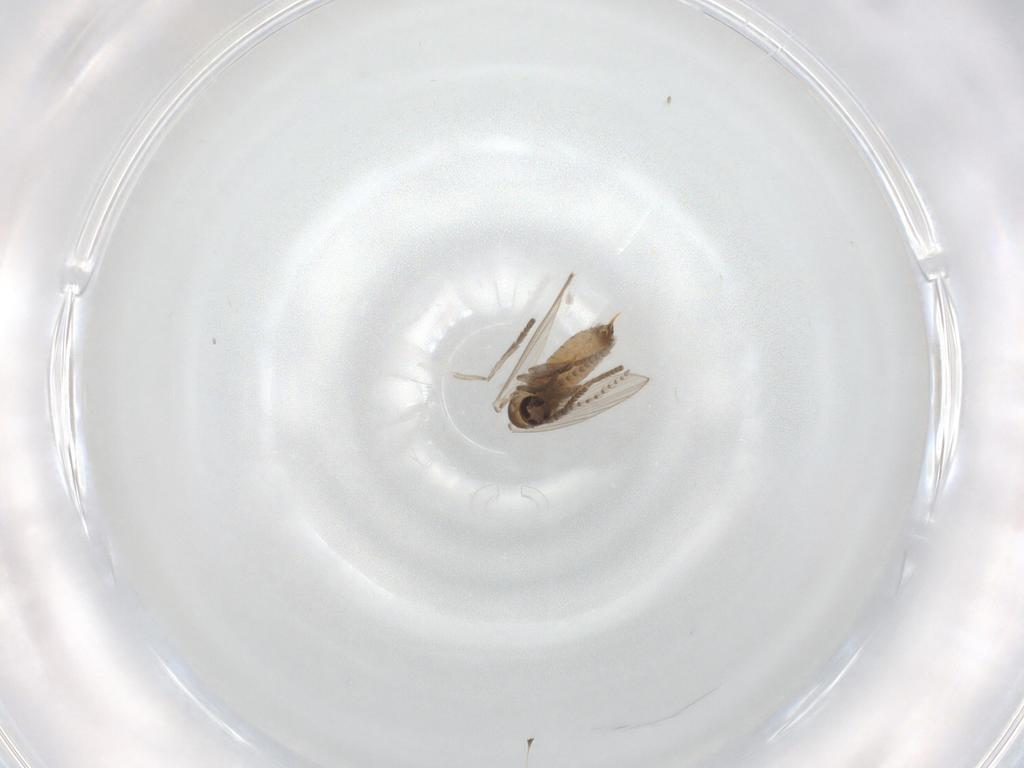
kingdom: Animalia
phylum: Arthropoda
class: Insecta
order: Diptera
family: Psychodidae
